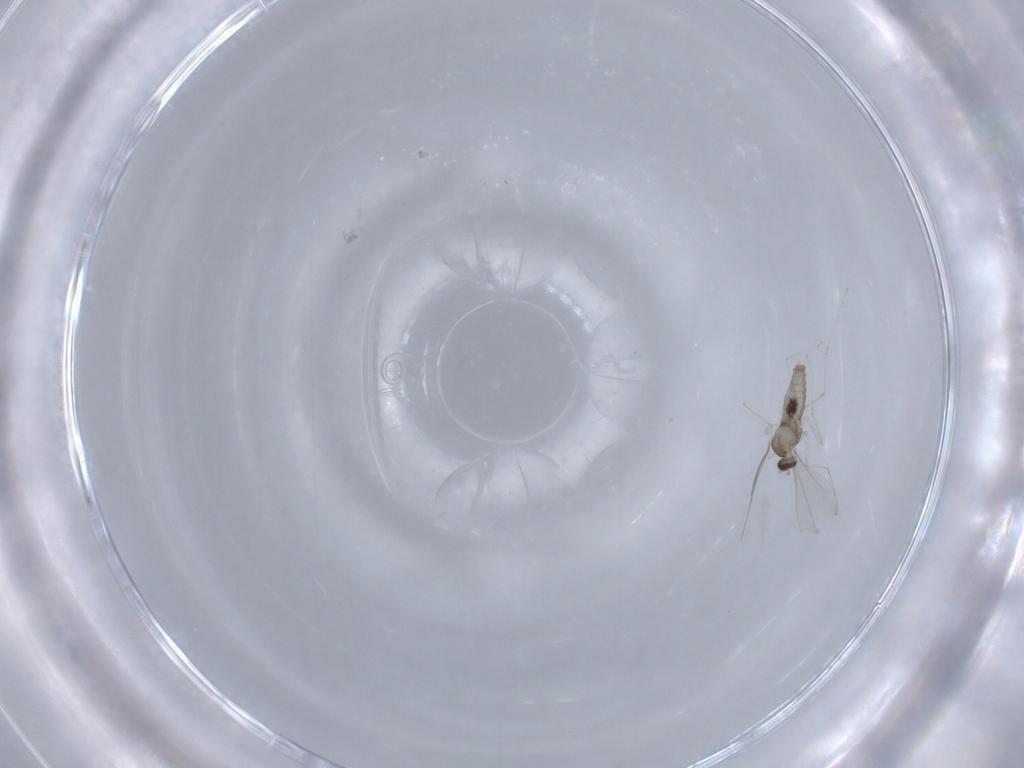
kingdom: Animalia
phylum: Arthropoda
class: Insecta
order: Diptera
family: Cecidomyiidae
